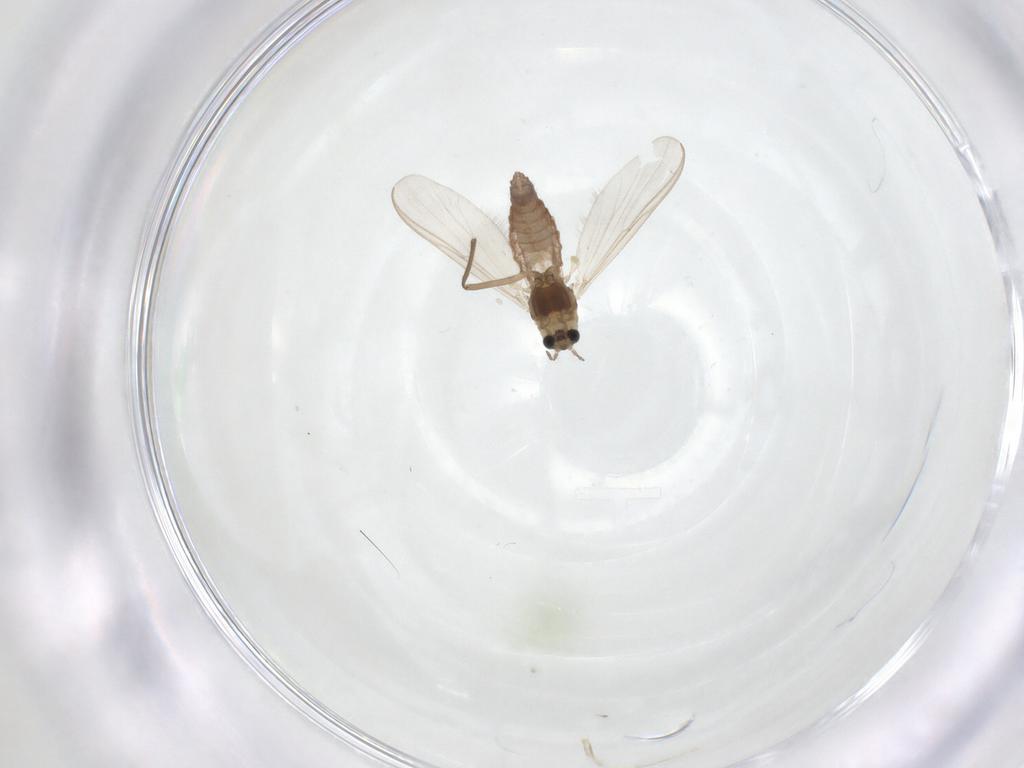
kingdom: Animalia
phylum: Arthropoda
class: Insecta
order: Diptera
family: Chironomidae
